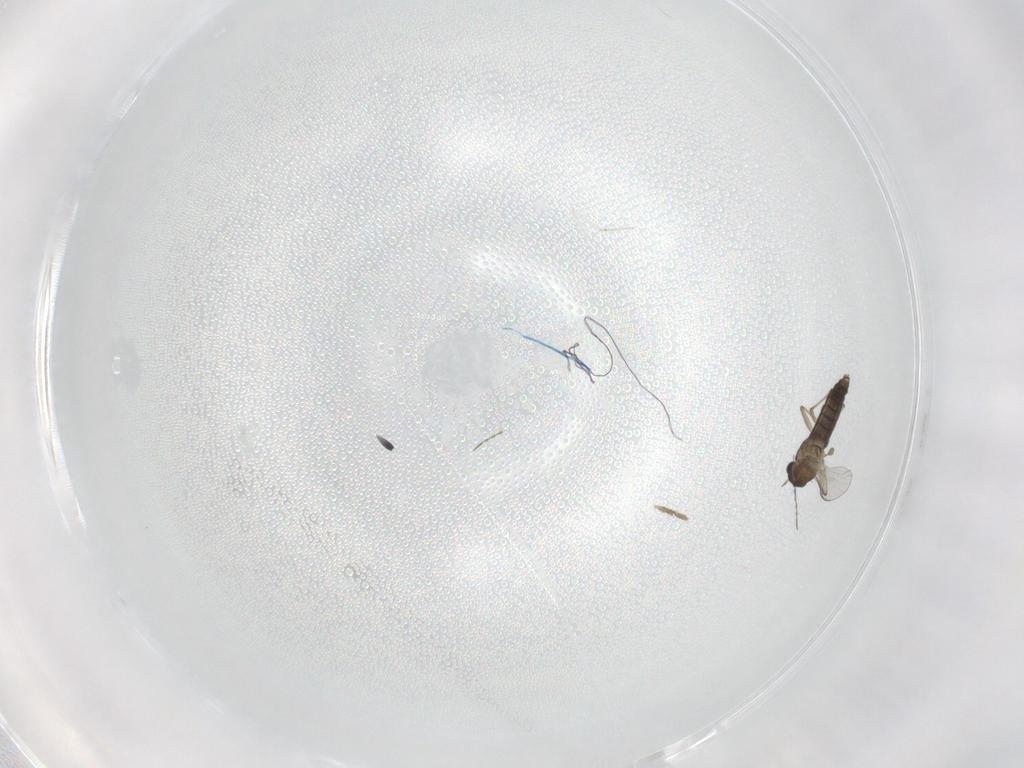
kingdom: Animalia
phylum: Arthropoda
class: Insecta
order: Diptera
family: Chironomidae
